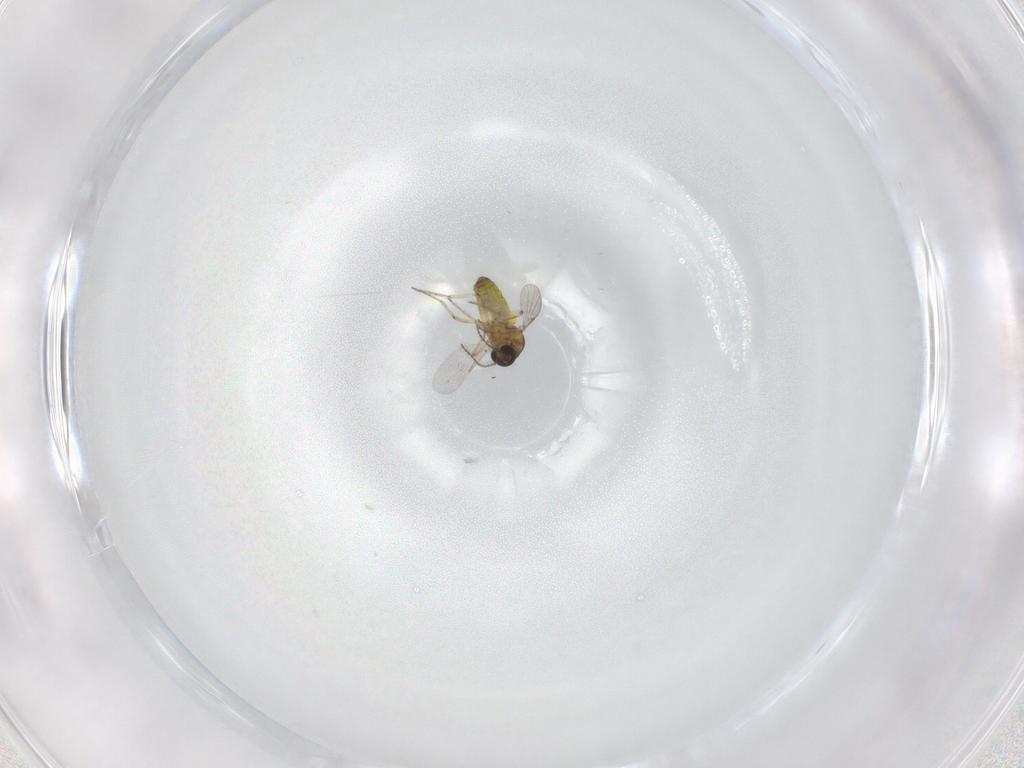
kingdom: Animalia
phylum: Arthropoda
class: Insecta
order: Diptera
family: Ceratopogonidae
